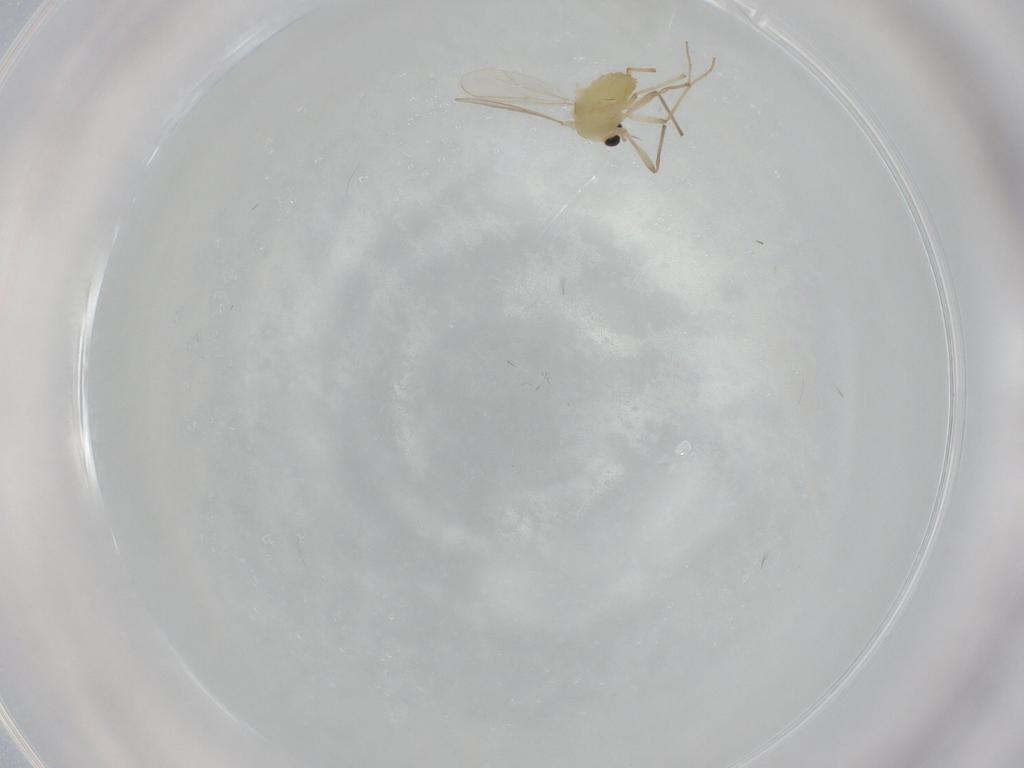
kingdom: Animalia
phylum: Arthropoda
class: Insecta
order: Diptera
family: Chironomidae
